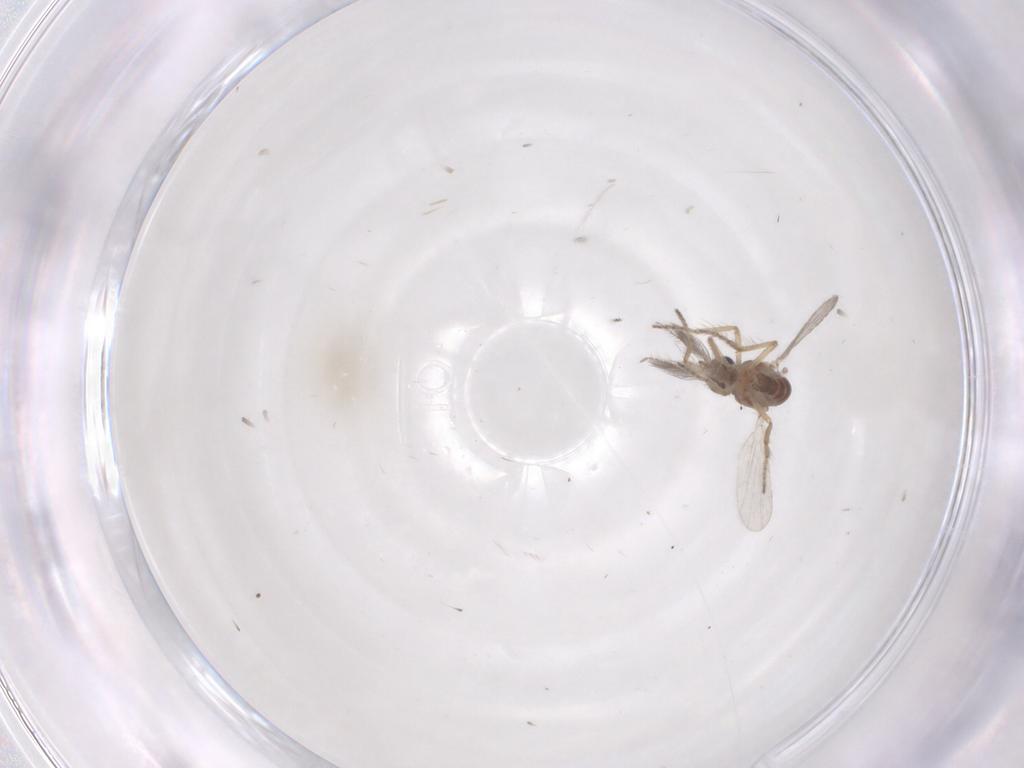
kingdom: Animalia
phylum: Arthropoda
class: Insecta
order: Diptera
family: Ceratopogonidae
